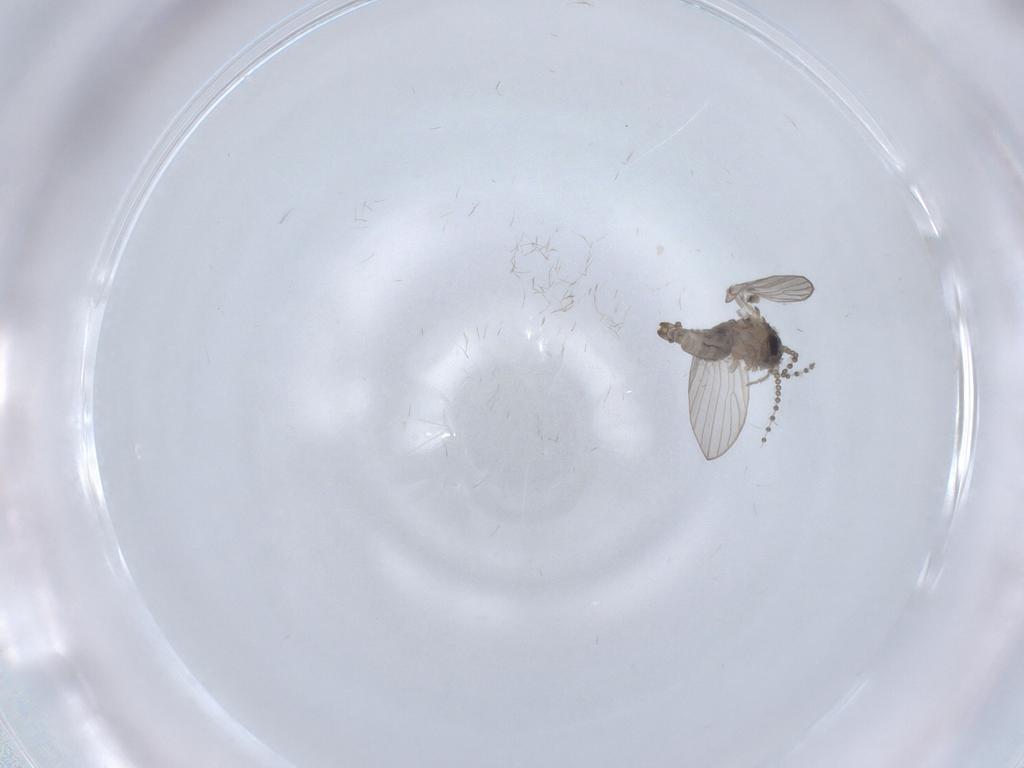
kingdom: Animalia
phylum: Arthropoda
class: Insecta
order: Diptera
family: Psychodidae
